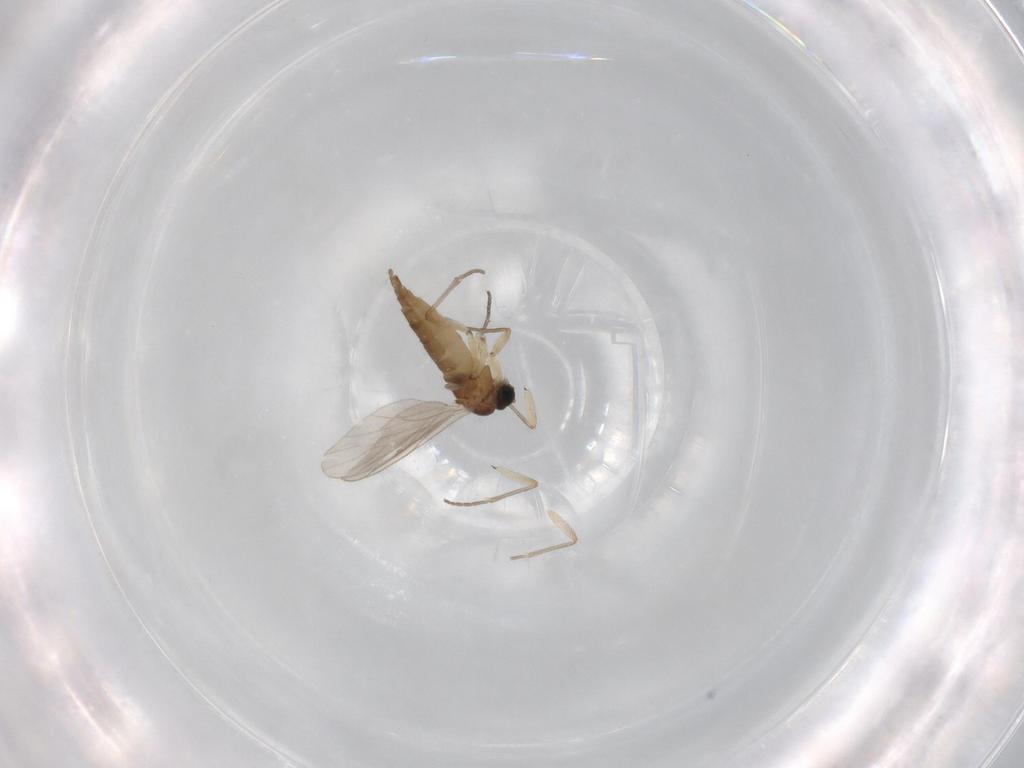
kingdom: Animalia
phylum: Arthropoda
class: Insecta
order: Diptera
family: Sciaridae
